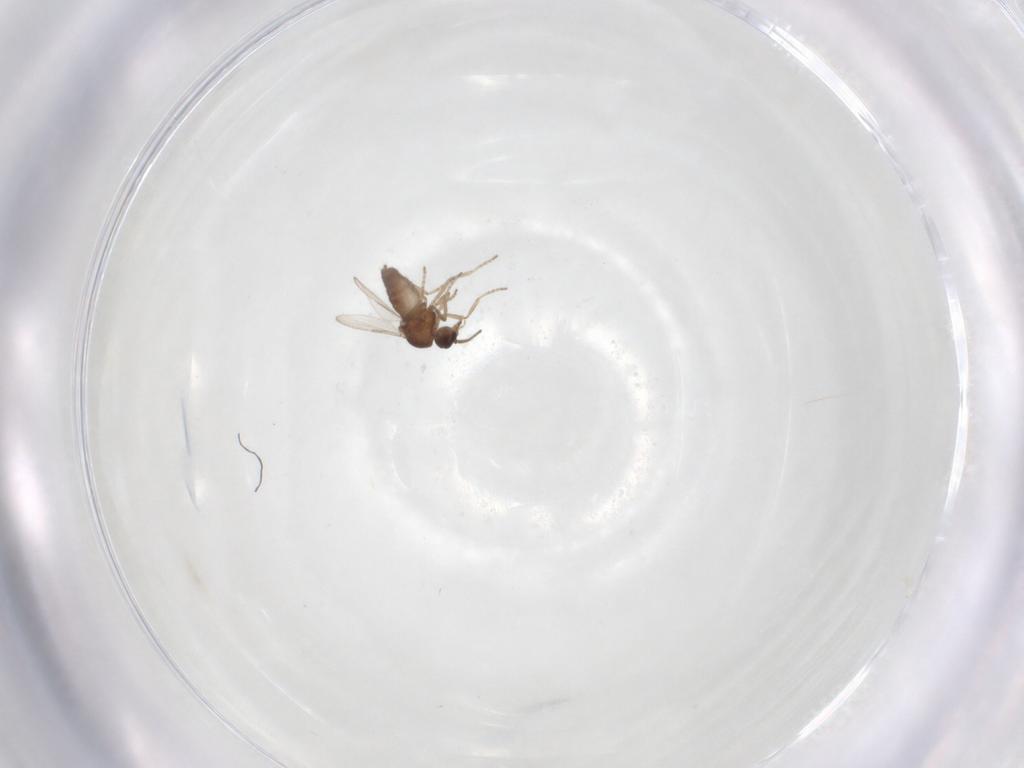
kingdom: Animalia
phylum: Arthropoda
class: Insecta
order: Diptera
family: Ceratopogonidae
